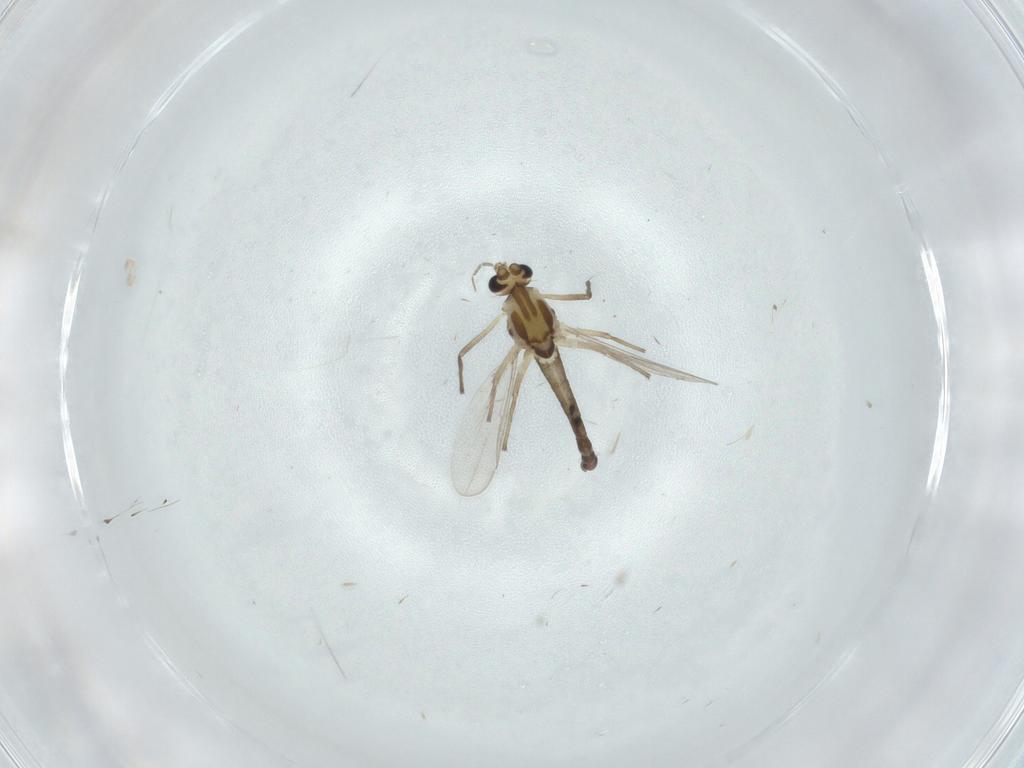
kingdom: Animalia
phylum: Arthropoda
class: Insecta
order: Diptera
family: Chironomidae
